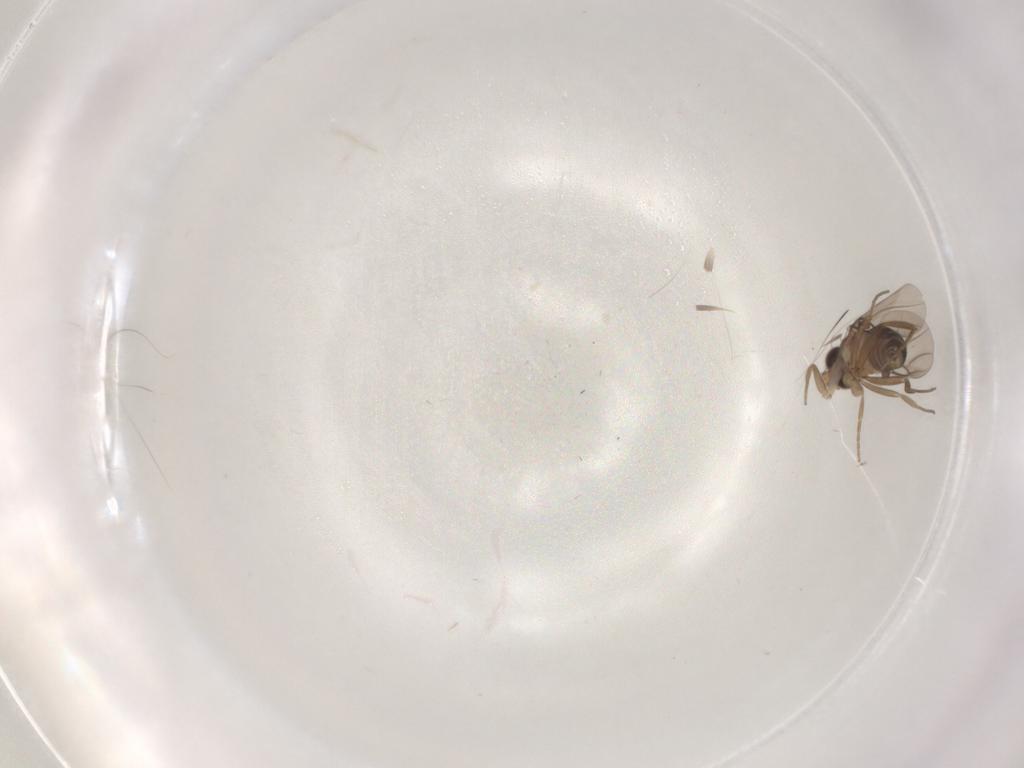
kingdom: Animalia
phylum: Arthropoda
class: Insecta
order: Diptera
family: Cecidomyiidae
